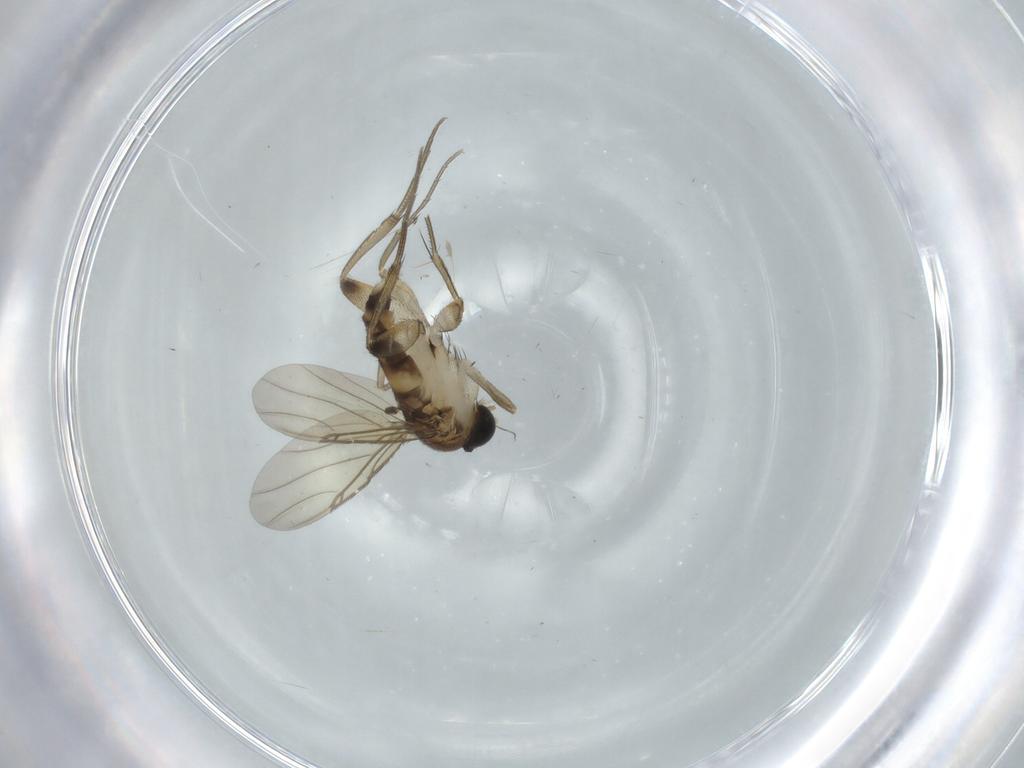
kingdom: Animalia
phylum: Arthropoda
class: Insecta
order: Diptera
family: Phoridae
